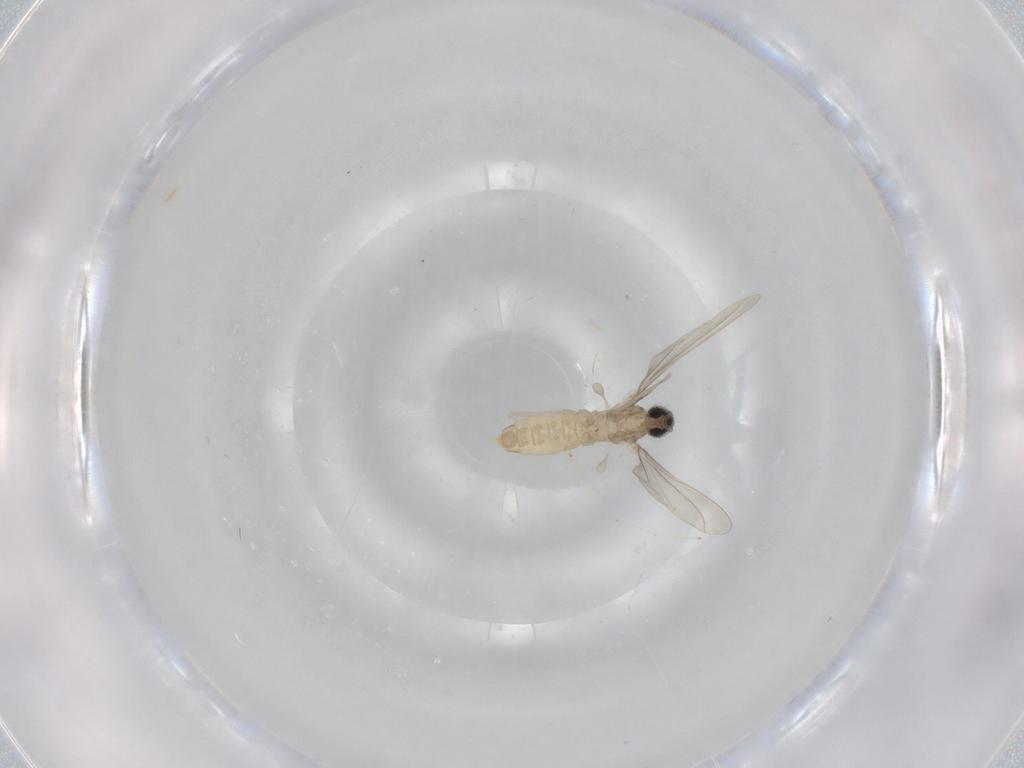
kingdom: Animalia
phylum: Arthropoda
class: Insecta
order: Diptera
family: Cecidomyiidae
